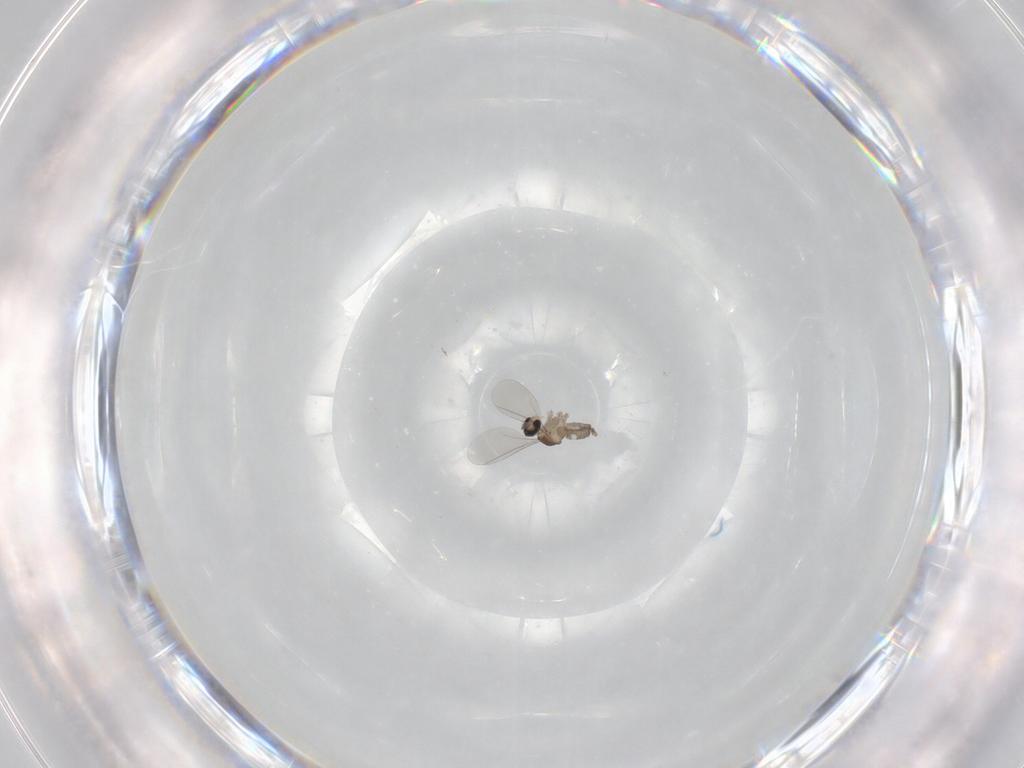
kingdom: Animalia
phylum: Arthropoda
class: Insecta
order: Diptera
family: Cecidomyiidae
